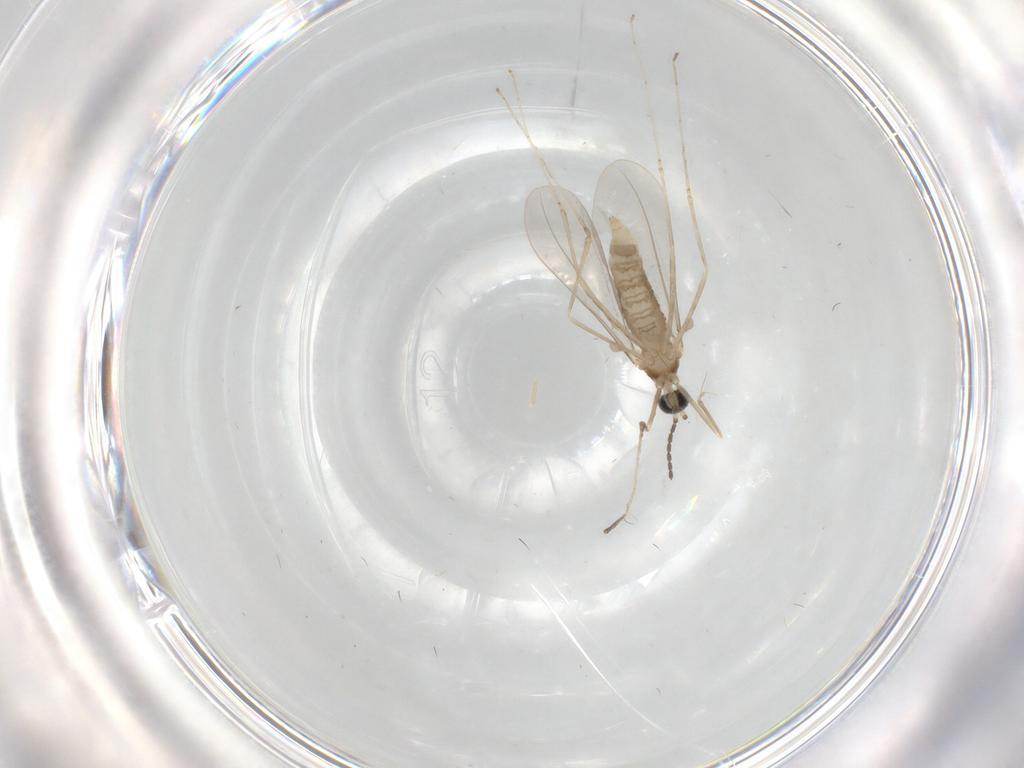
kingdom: Animalia
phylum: Arthropoda
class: Insecta
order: Diptera
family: Cecidomyiidae
